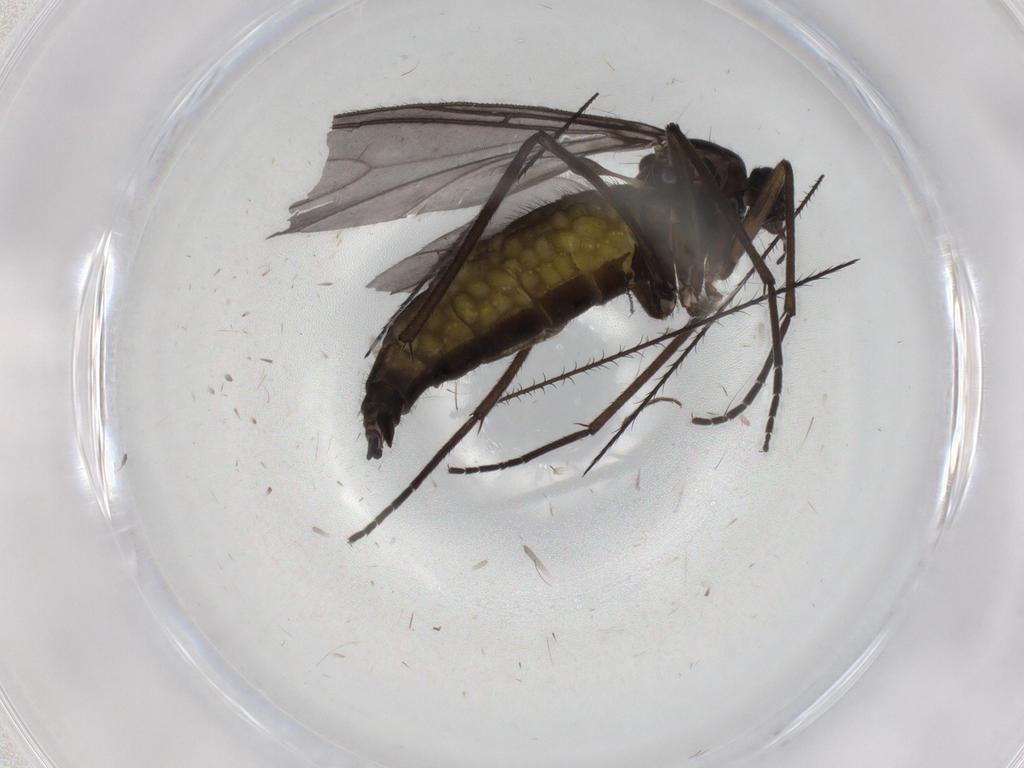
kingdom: Animalia
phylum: Arthropoda
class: Insecta
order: Diptera
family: Sciaridae
